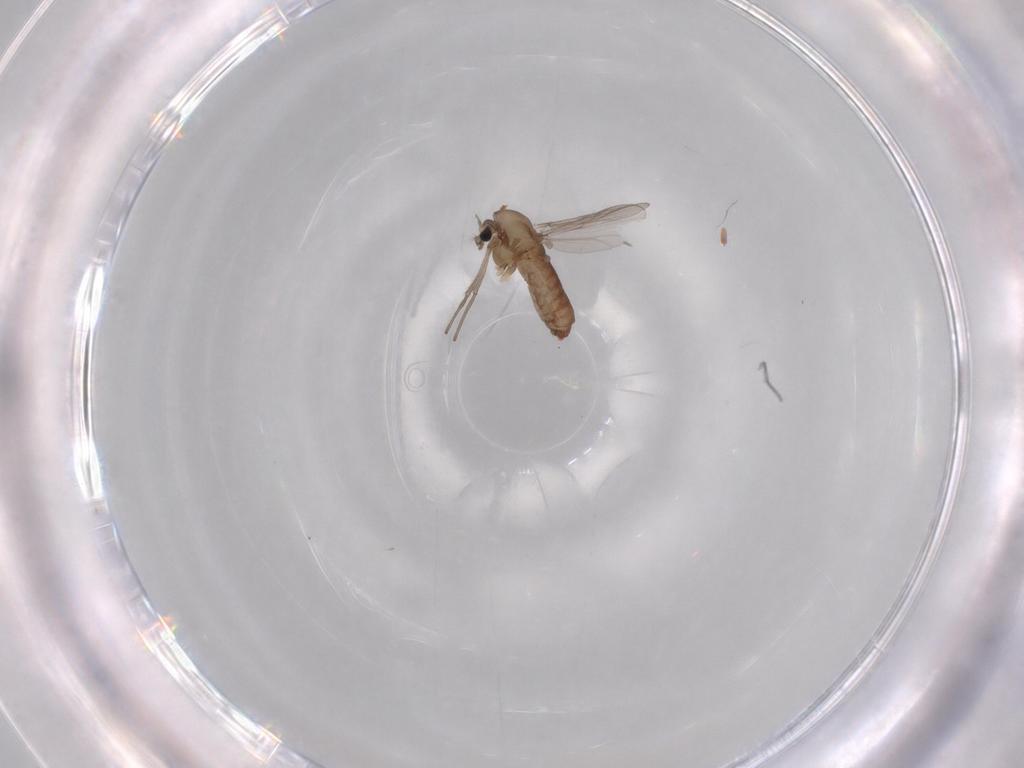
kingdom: Animalia
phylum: Arthropoda
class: Insecta
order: Diptera
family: Chironomidae
